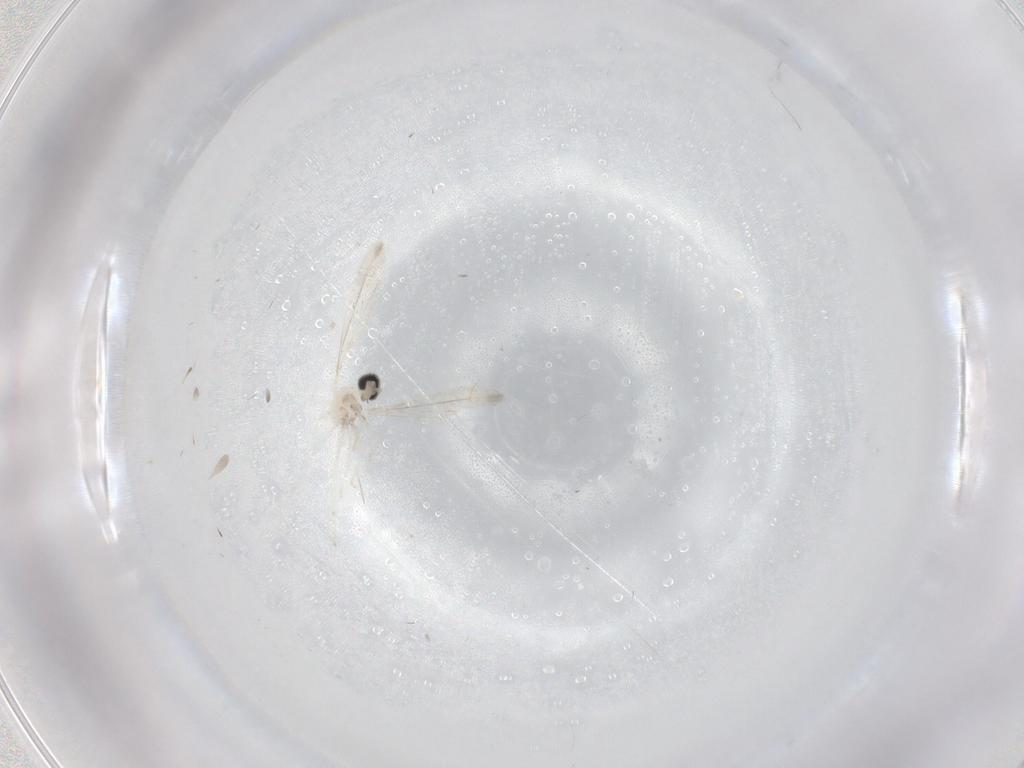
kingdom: Animalia
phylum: Arthropoda
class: Insecta
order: Diptera
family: Cecidomyiidae
